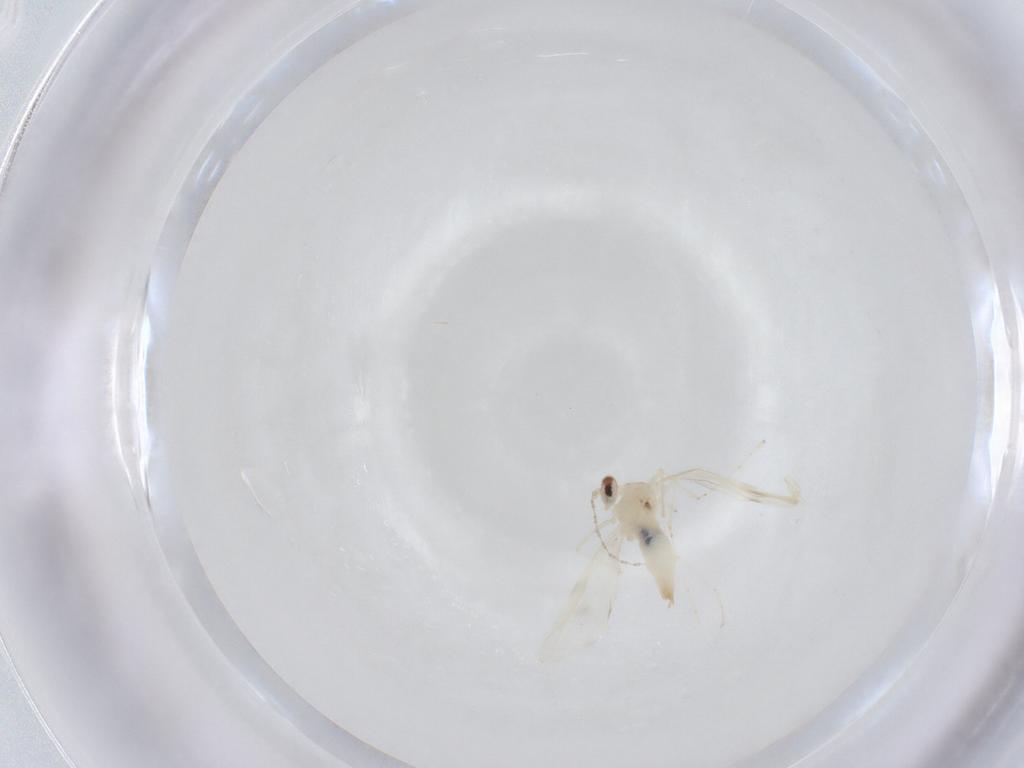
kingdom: Animalia
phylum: Arthropoda
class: Insecta
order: Diptera
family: Cecidomyiidae
